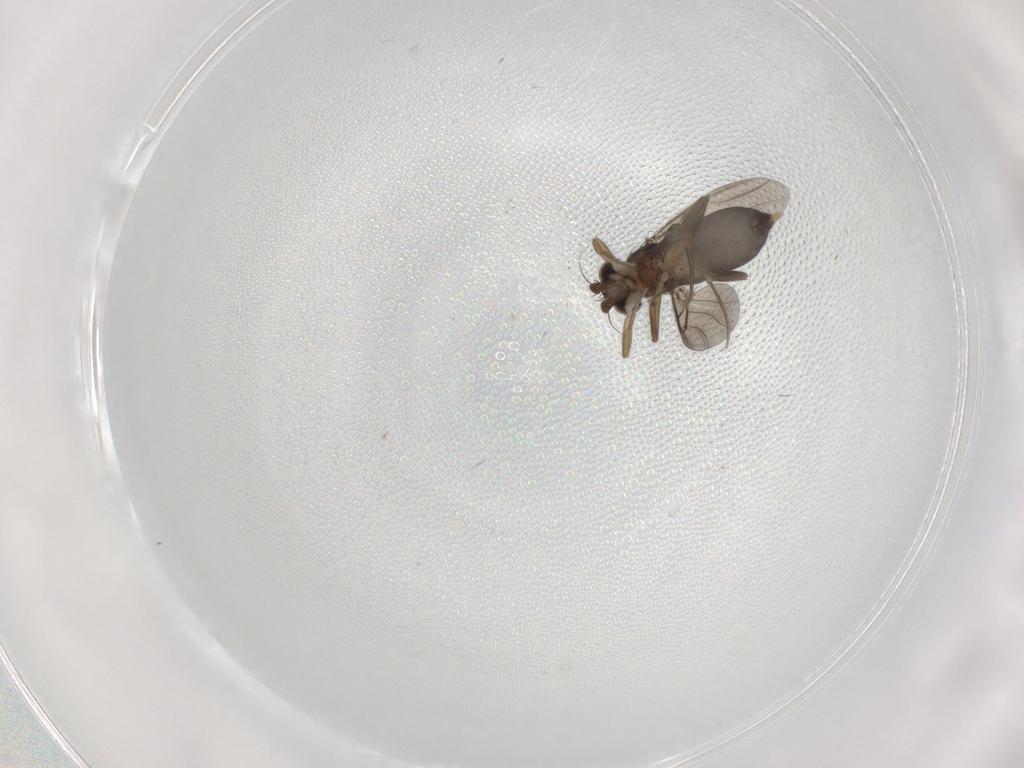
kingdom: Animalia
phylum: Arthropoda
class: Insecta
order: Diptera
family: Phoridae
